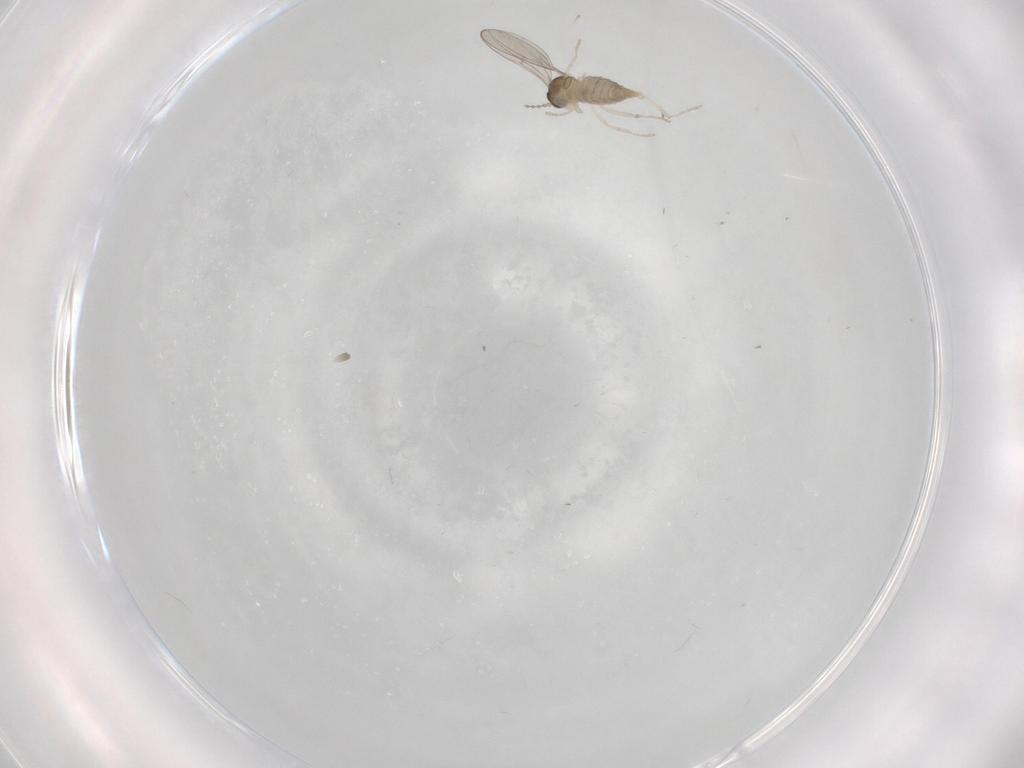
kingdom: Animalia
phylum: Arthropoda
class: Insecta
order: Diptera
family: Cecidomyiidae
